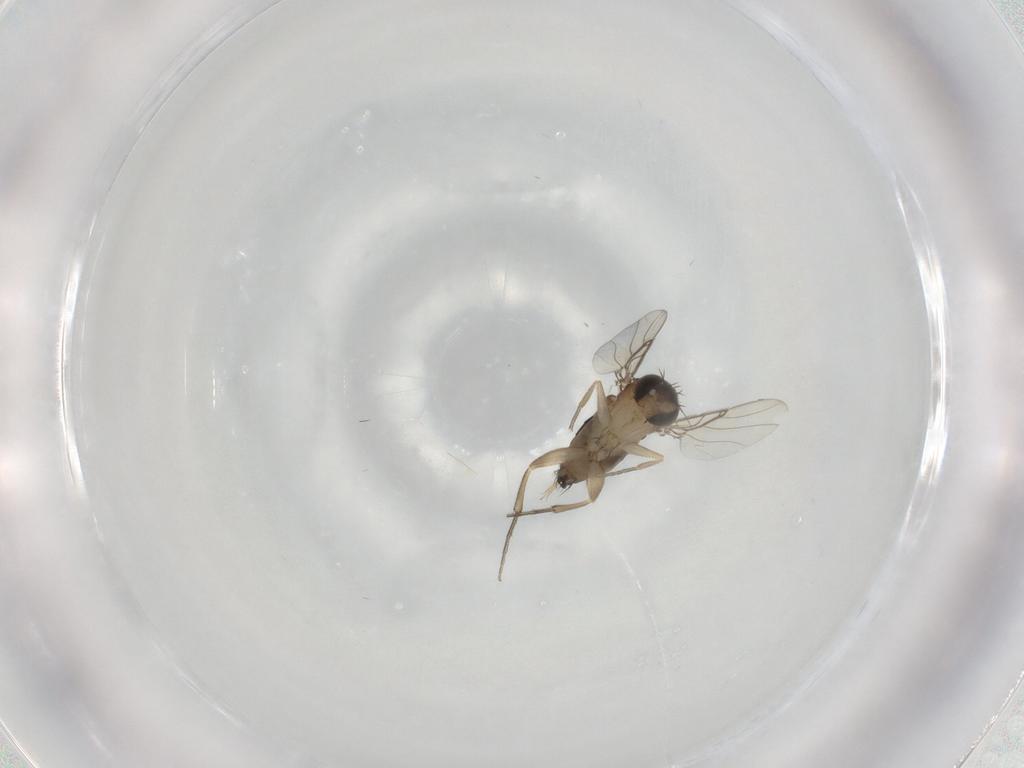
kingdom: Animalia
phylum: Arthropoda
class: Insecta
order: Diptera
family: Phoridae
